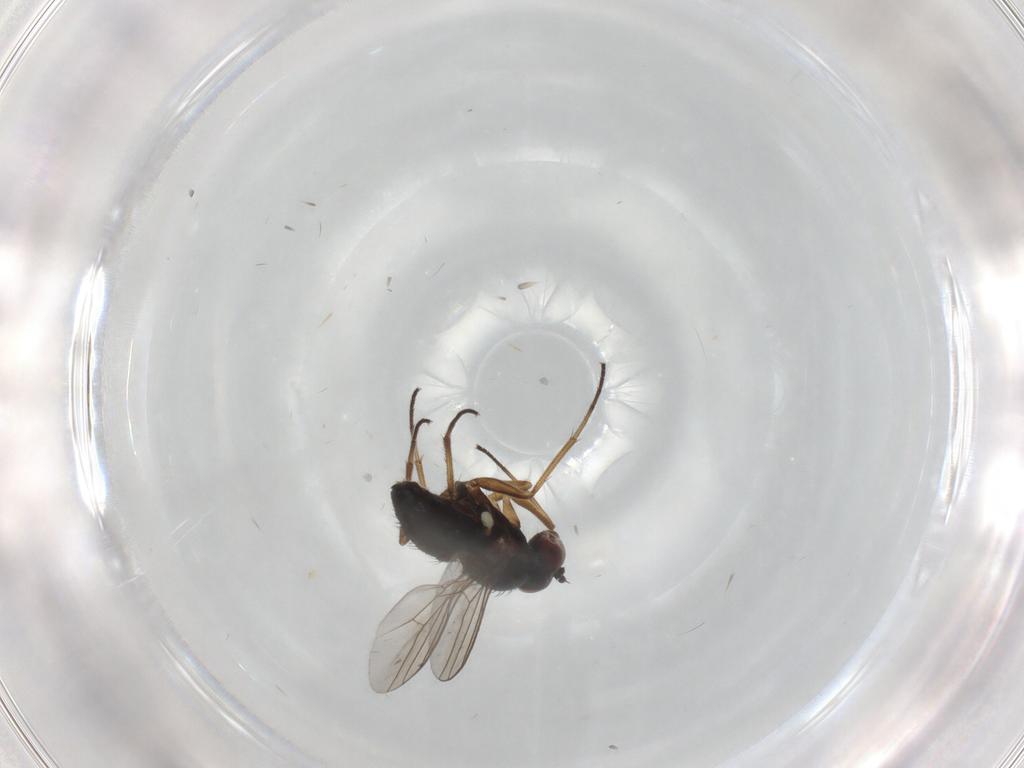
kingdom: Animalia
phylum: Arthropoda
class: Insecta
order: Diptera
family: Dolichopodidae
